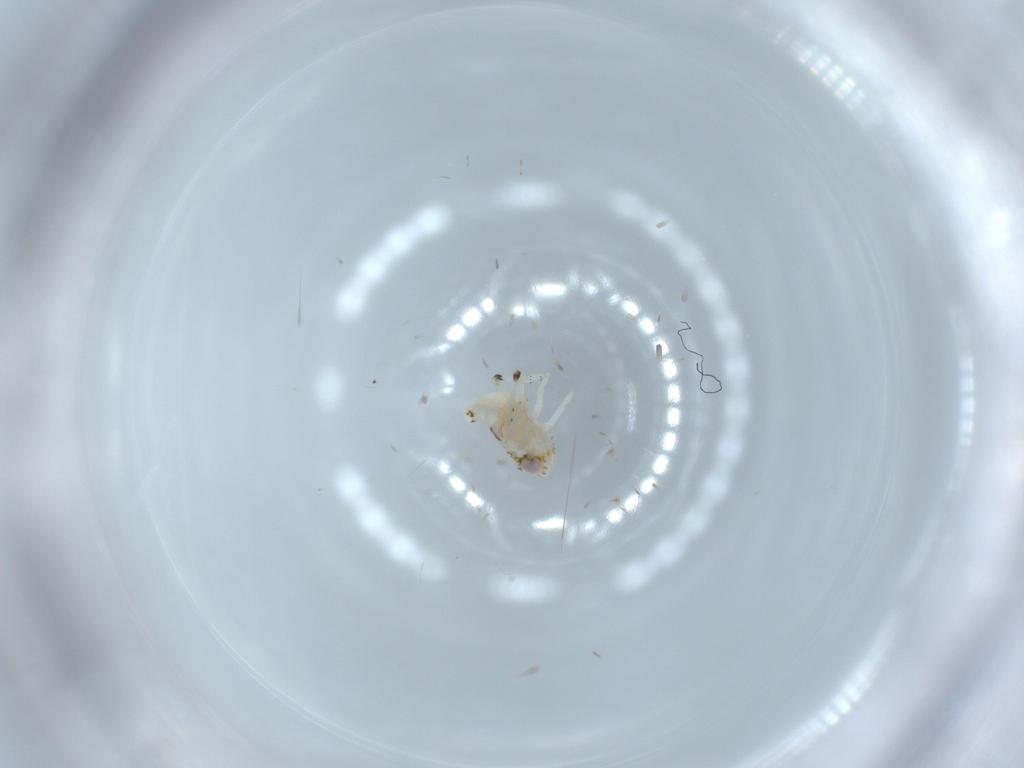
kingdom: Animalia
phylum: Arthropoda
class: Insecta
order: Hemiptera
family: Nogodinidae
